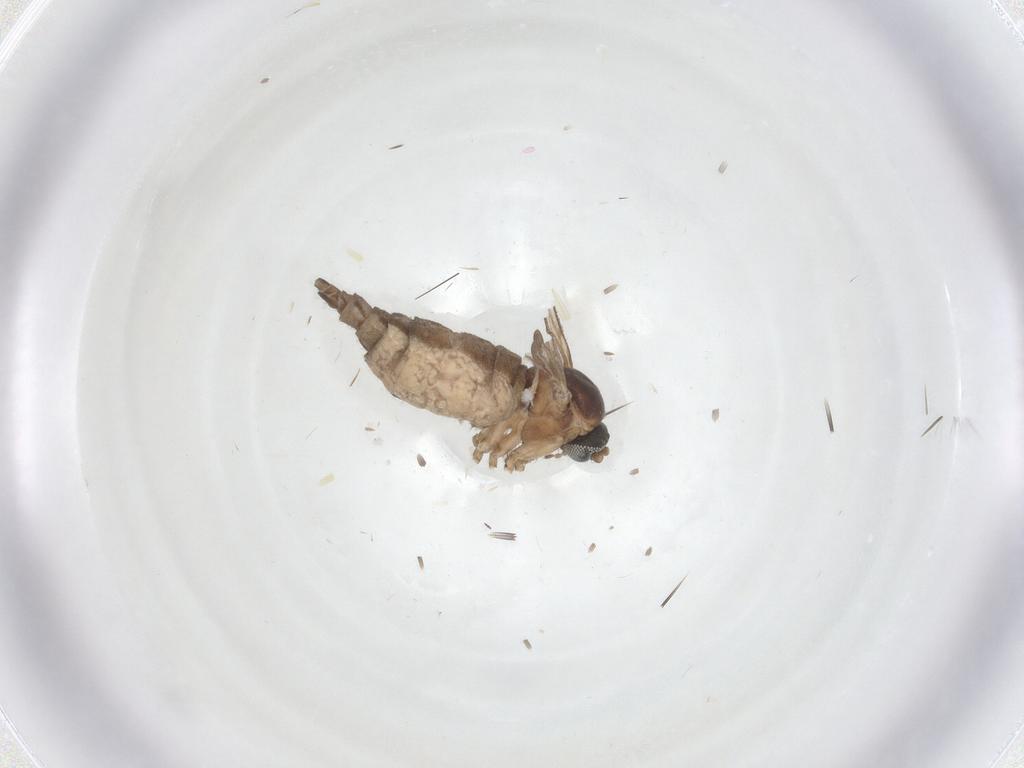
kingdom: Animalia
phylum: Arthropoda
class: Insecta
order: Diptera
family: Sciaridae
